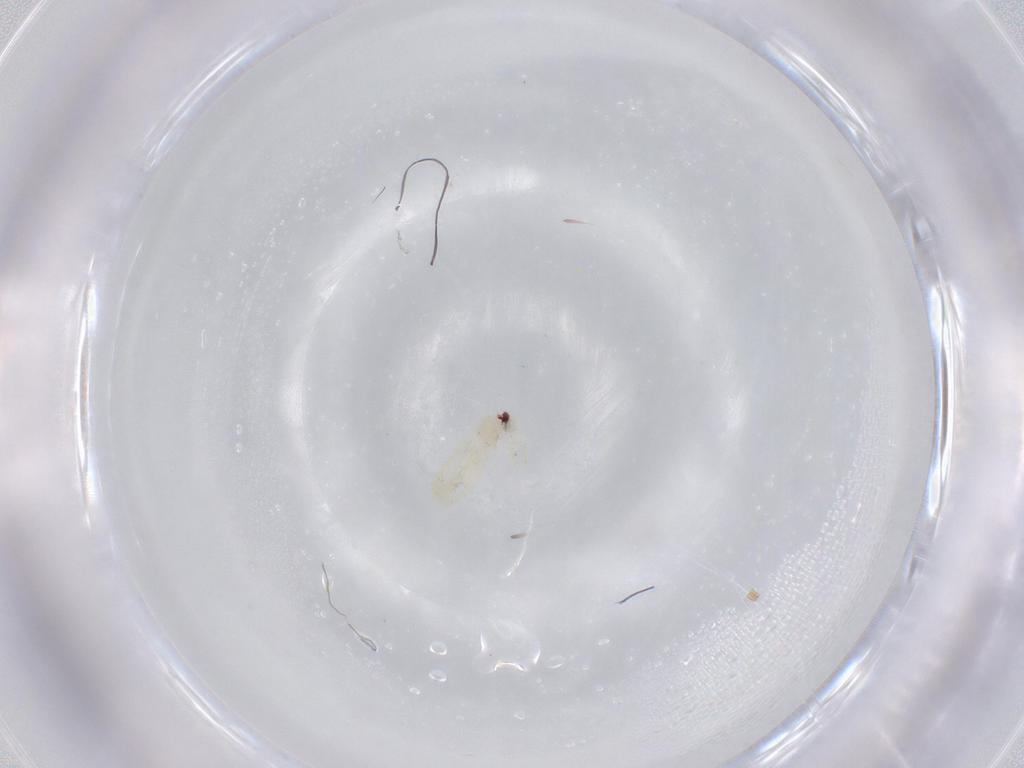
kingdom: Animalia
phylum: Arthropoda
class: Insecta
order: Hemiptera
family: Aleyrodidae
